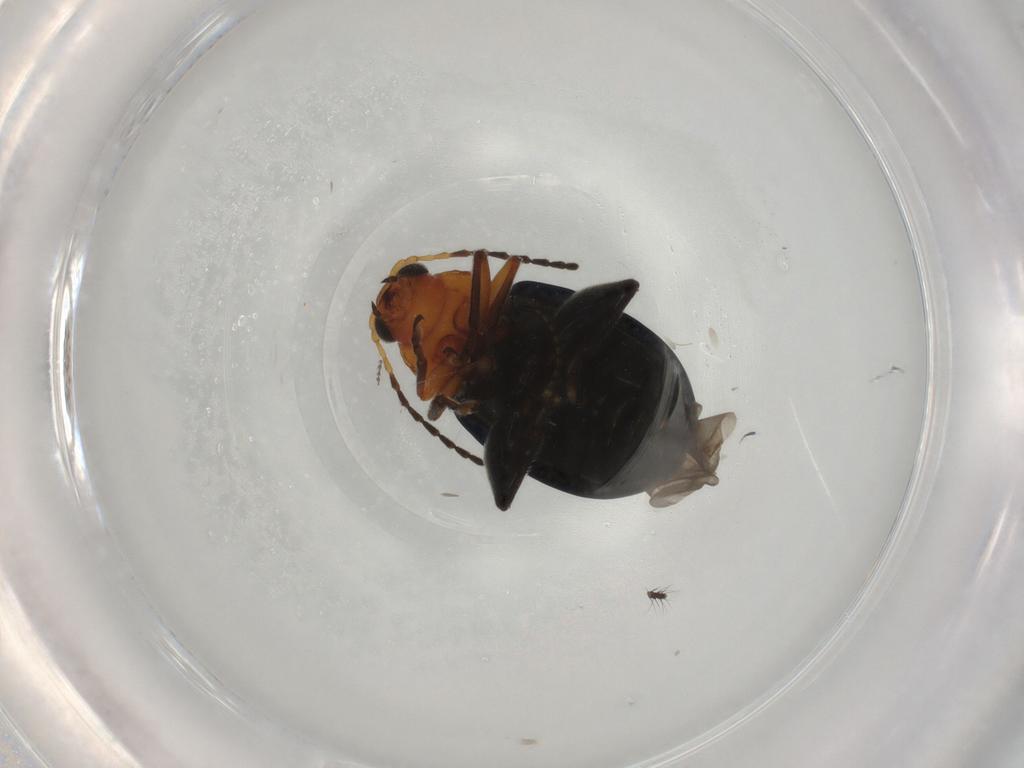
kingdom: Animalia
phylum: Arthropoda
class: Insecta
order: Coleoptera
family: Chrysomelidae
